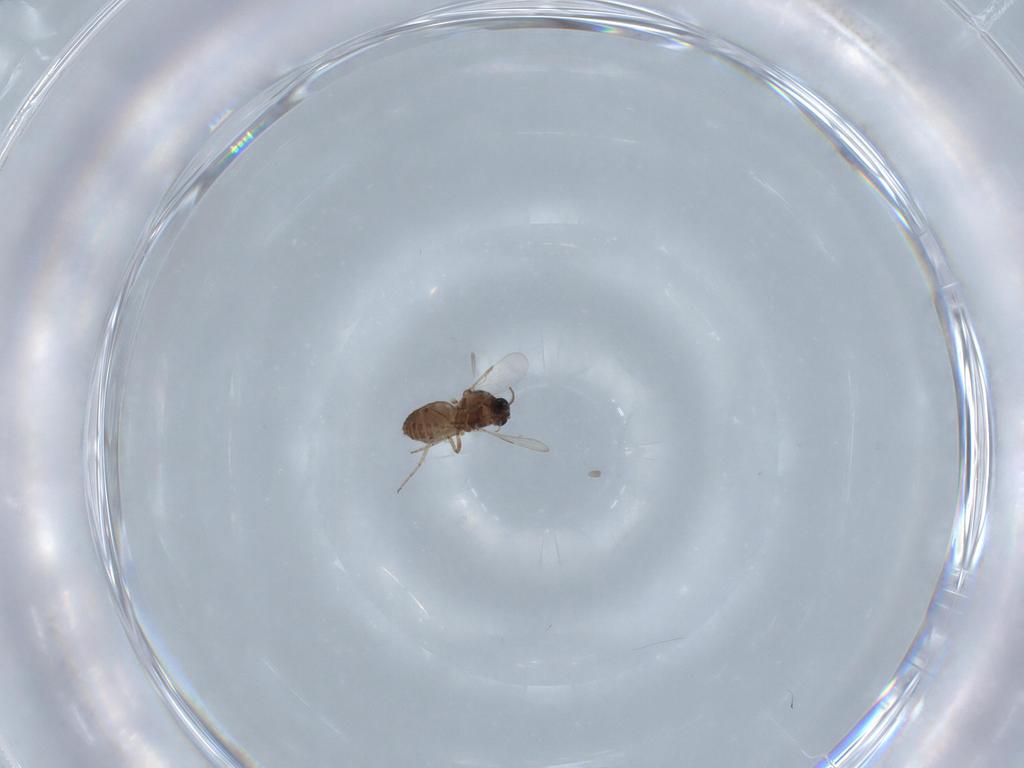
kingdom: Animalia
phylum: Arthropoda
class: Insecta
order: Diptera
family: Ceratopogonidae
